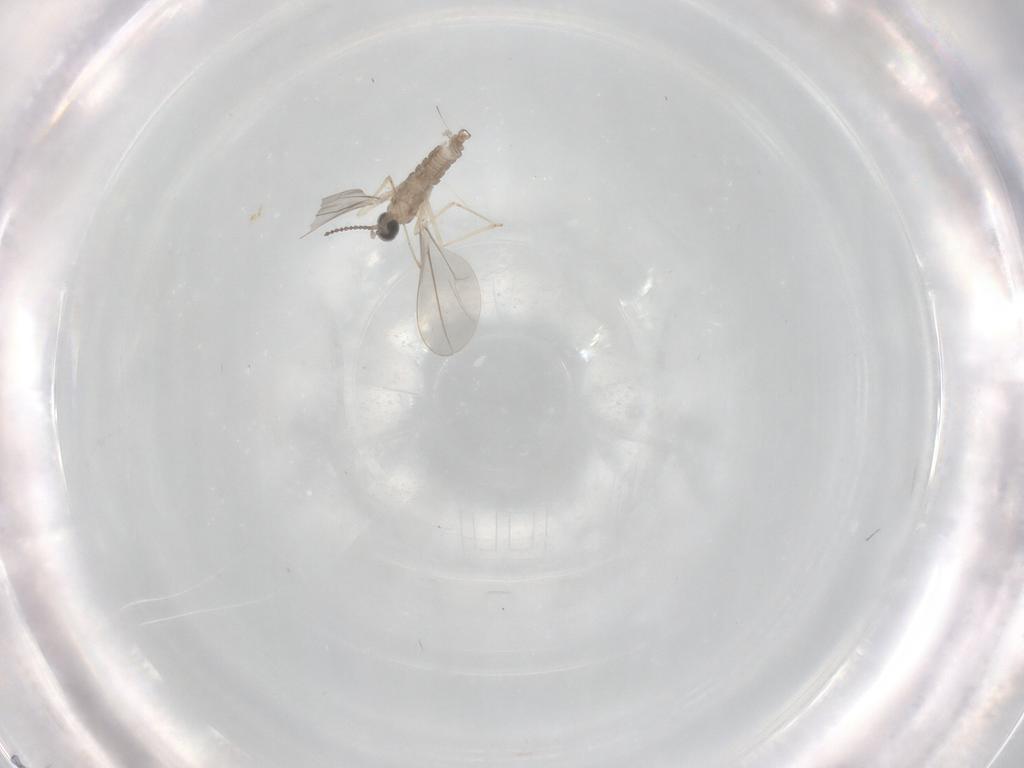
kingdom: Animalia
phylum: Arthropoda
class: Insecta
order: Diptera
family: Cecidomyiidae
